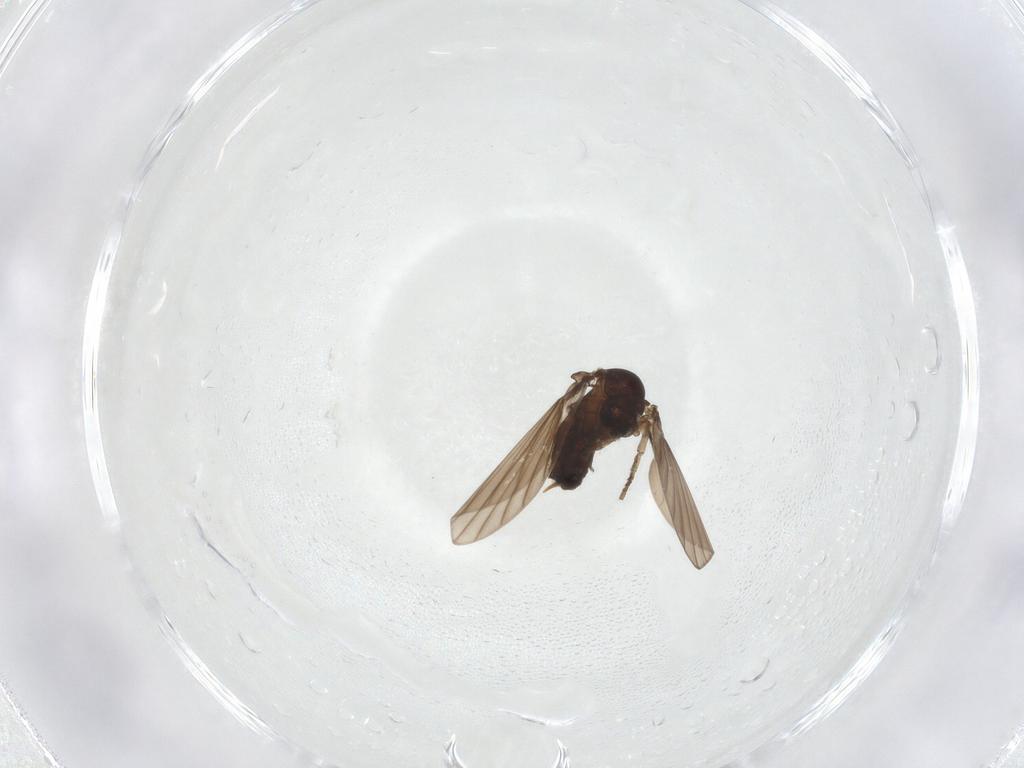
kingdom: Animalia
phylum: Arthropoda
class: Insecta
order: Diptera
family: Psychodidae
